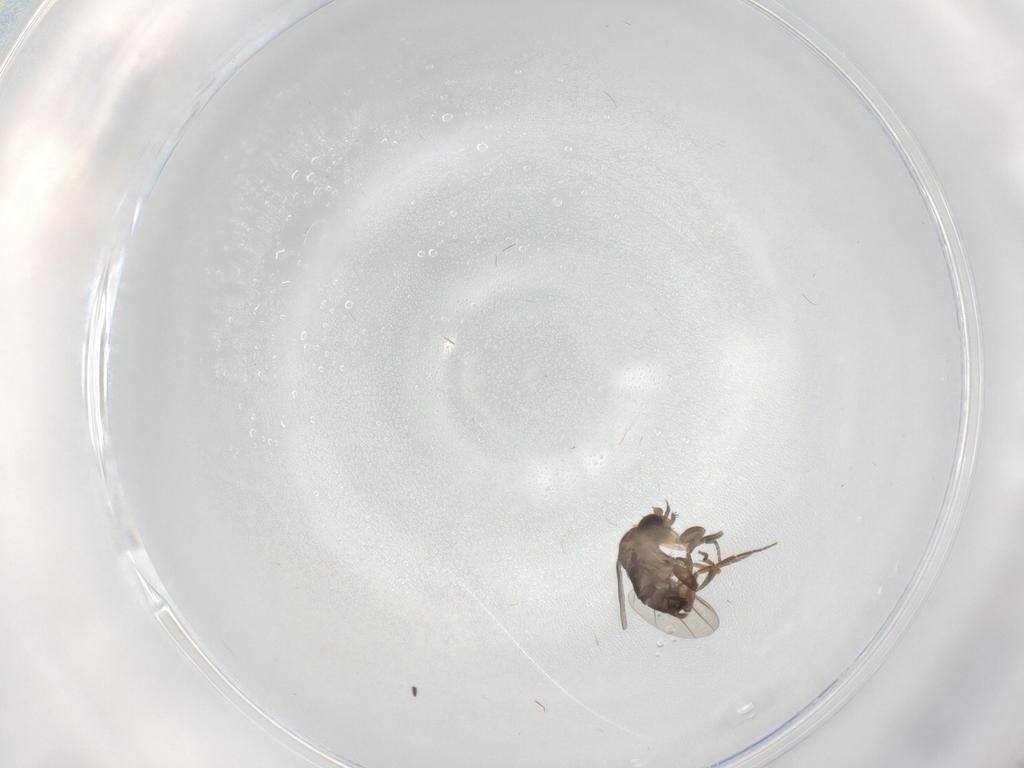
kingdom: Animalia
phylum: Arthropoda
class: Insecta
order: Diptera
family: Phoridae
